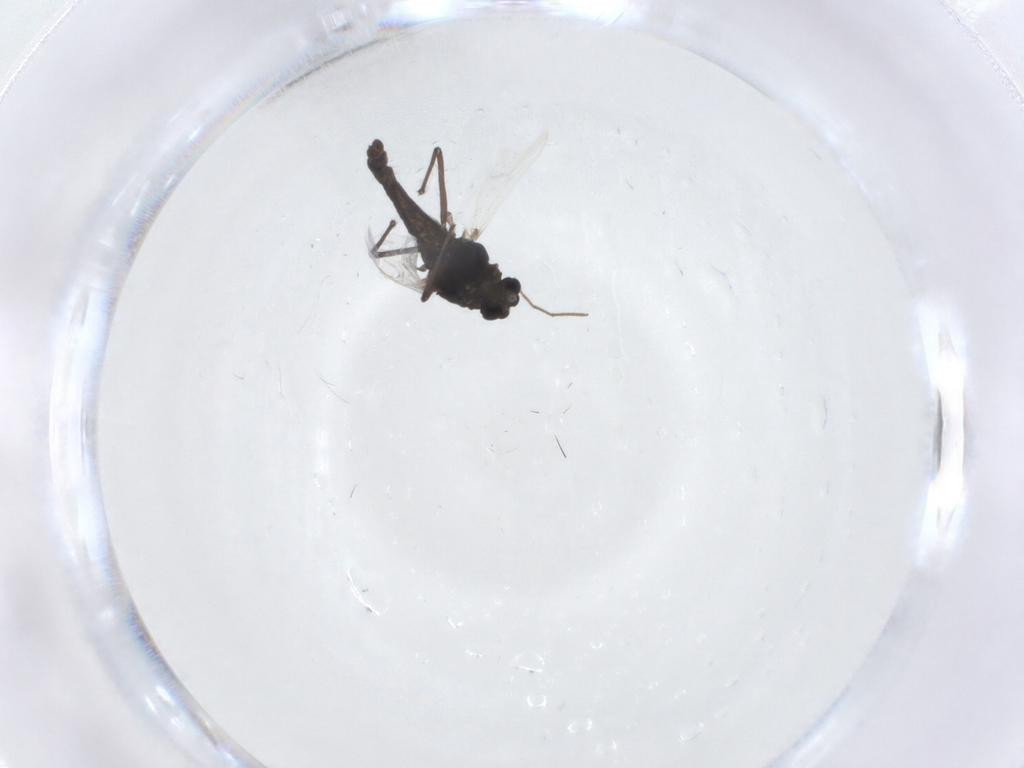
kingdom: Animalia
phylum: Arthropoda
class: Insecta
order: Diptera
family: Chironomidae
